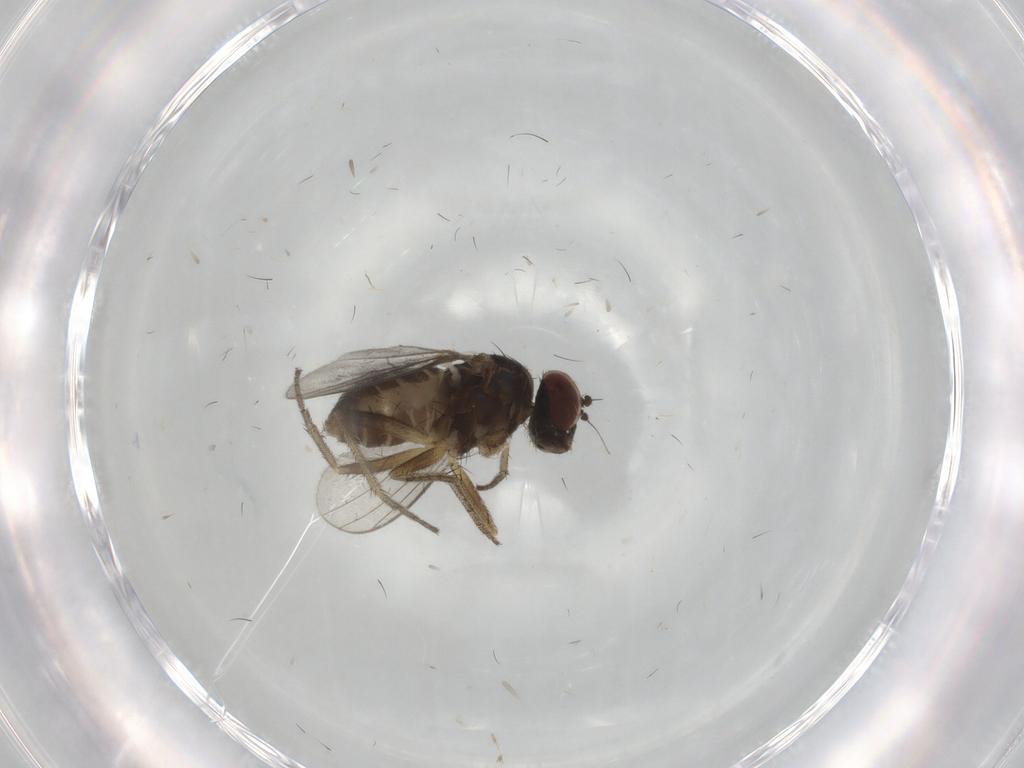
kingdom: Animalia
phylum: Arthropoda
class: Insecta
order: Diptera
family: Dolichopodidae
